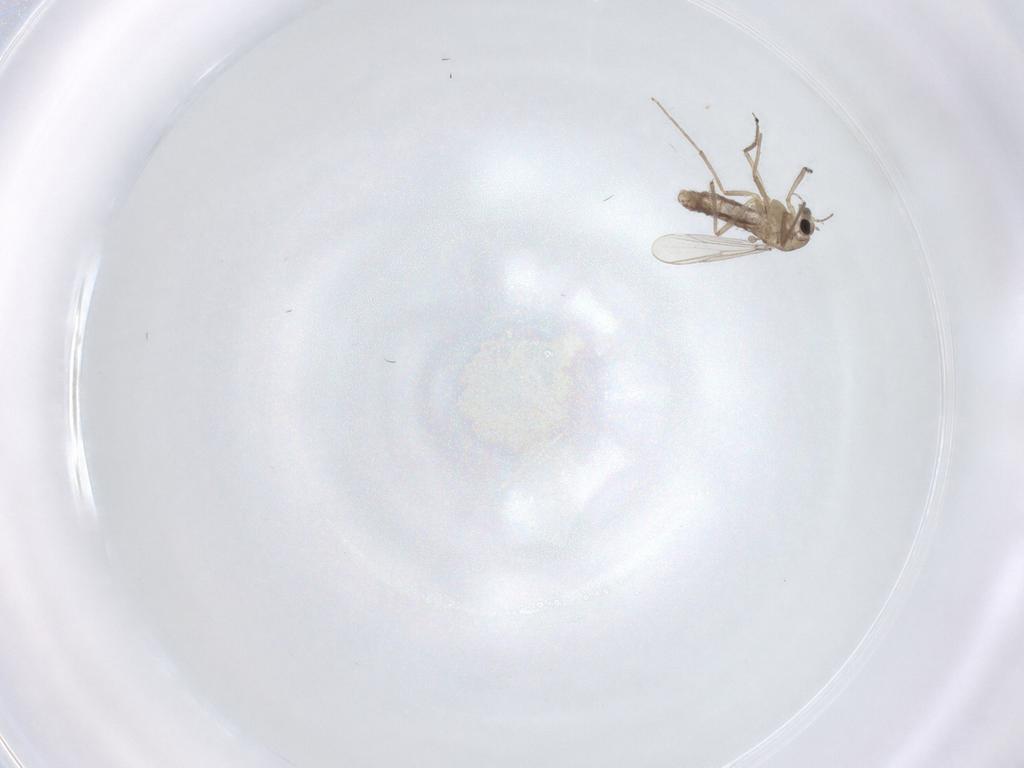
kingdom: Animalia
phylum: Arthropoda
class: Insecta
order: Diptera
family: Chironomidae
